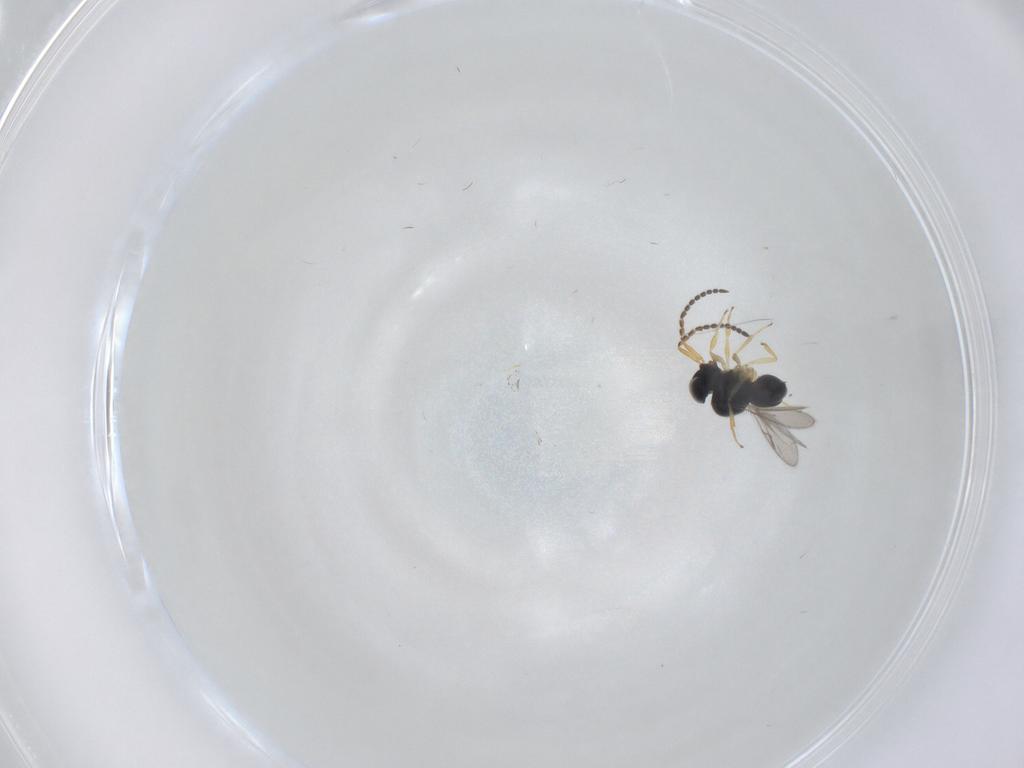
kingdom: Animalia
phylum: Arthropoda
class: Insecta
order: Hymenoptera
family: Scelionidae
